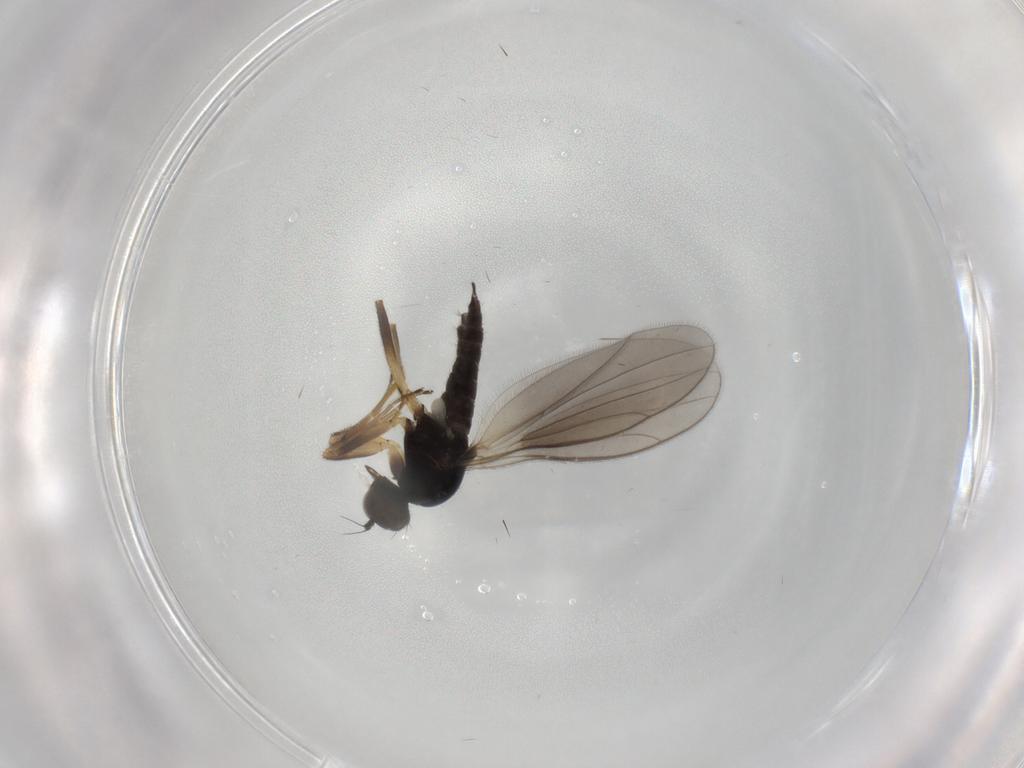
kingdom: Animalia
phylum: Arthropoda
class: Insecta
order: Diptera
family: Hybotidae
